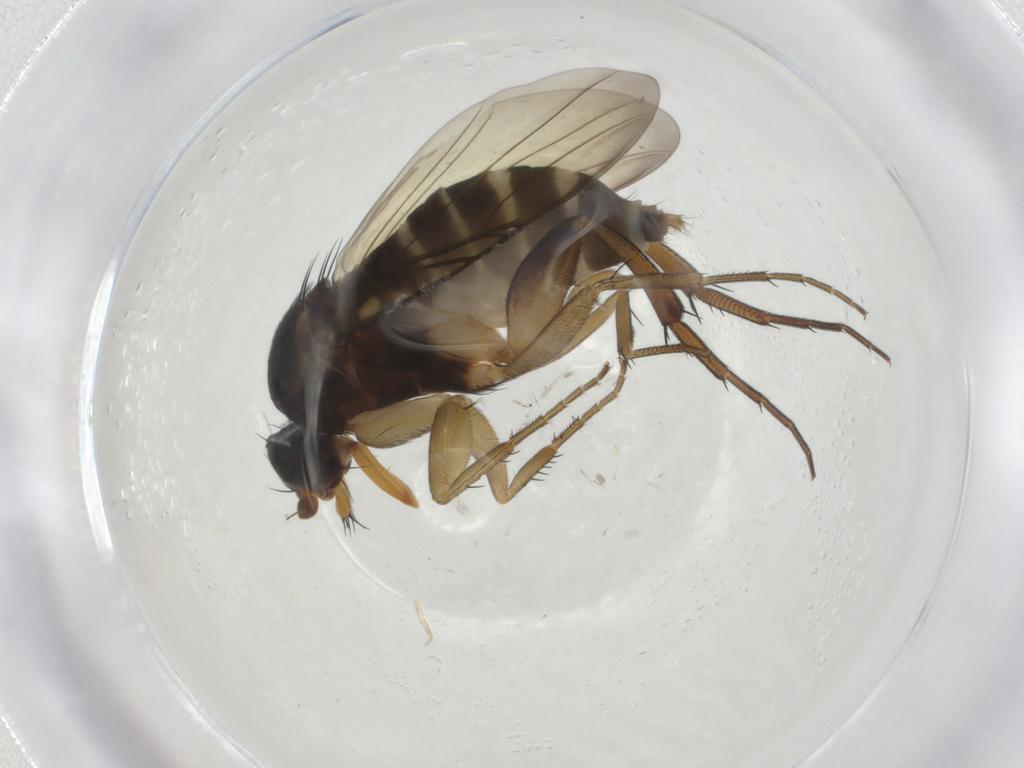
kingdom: Animalia
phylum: Arthropoda
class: Insecta
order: Diptera
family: Phoridae
